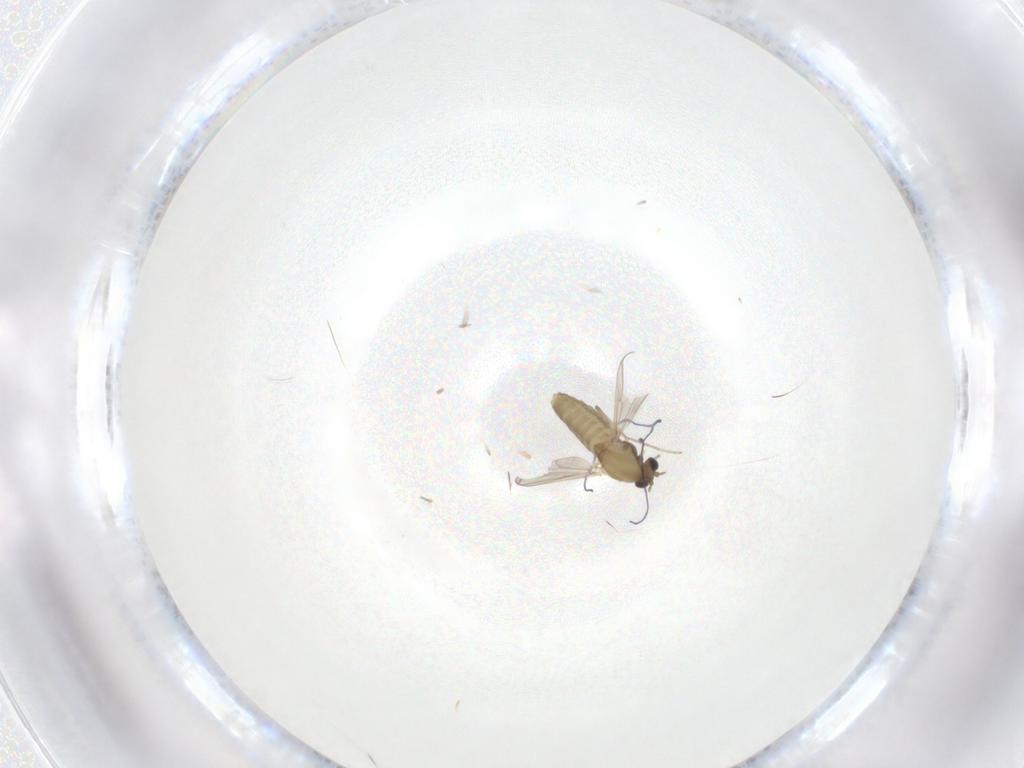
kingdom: Animalia
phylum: Arthropoda
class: Insecta
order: Diptera
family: Chironomidae
